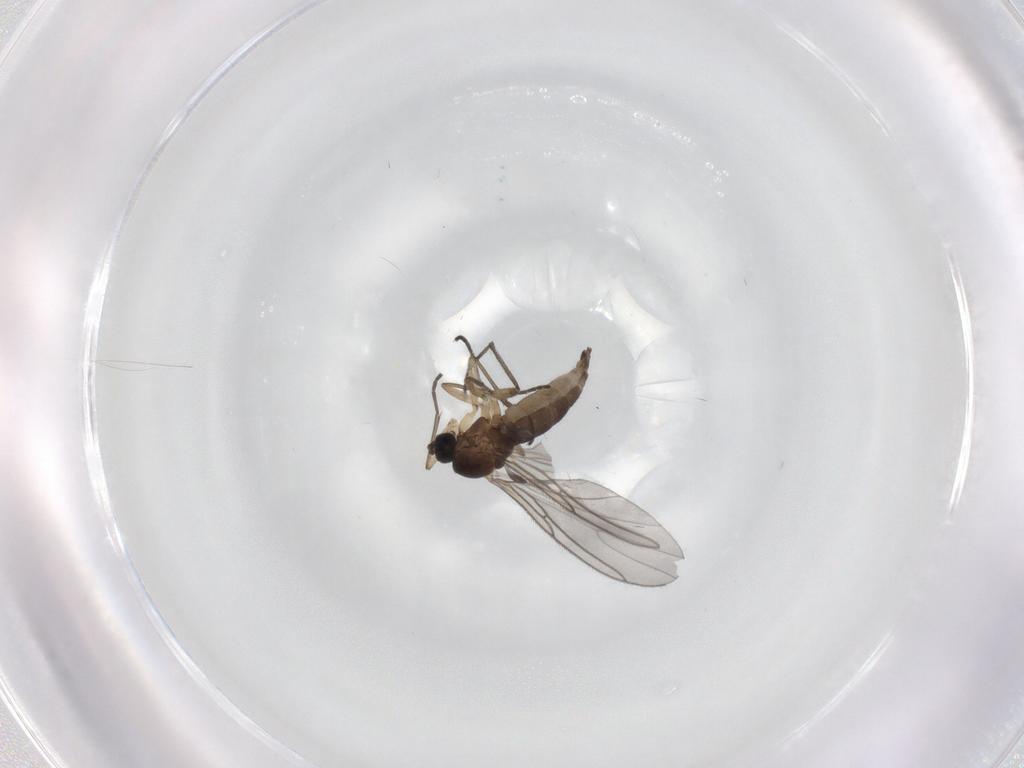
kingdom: Animalia
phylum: Arthropoda
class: Insecta
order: Diptera
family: Sciaridae
